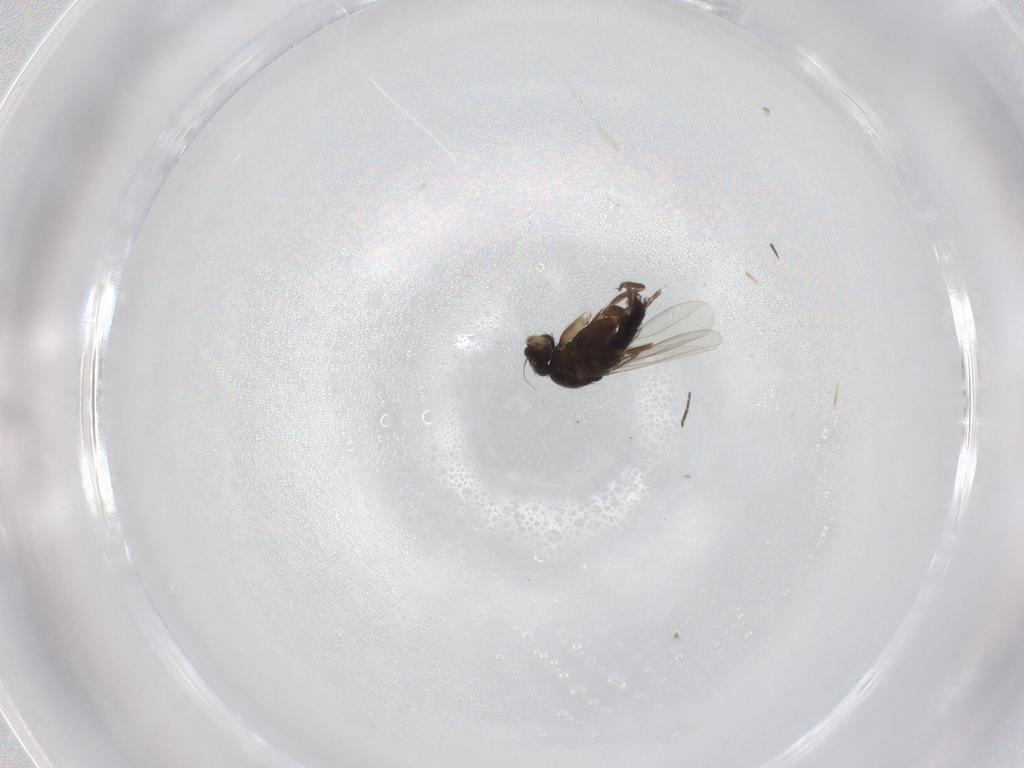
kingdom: Animalia
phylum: Arthropoda
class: Insecta
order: Diptera
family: Phoridae
